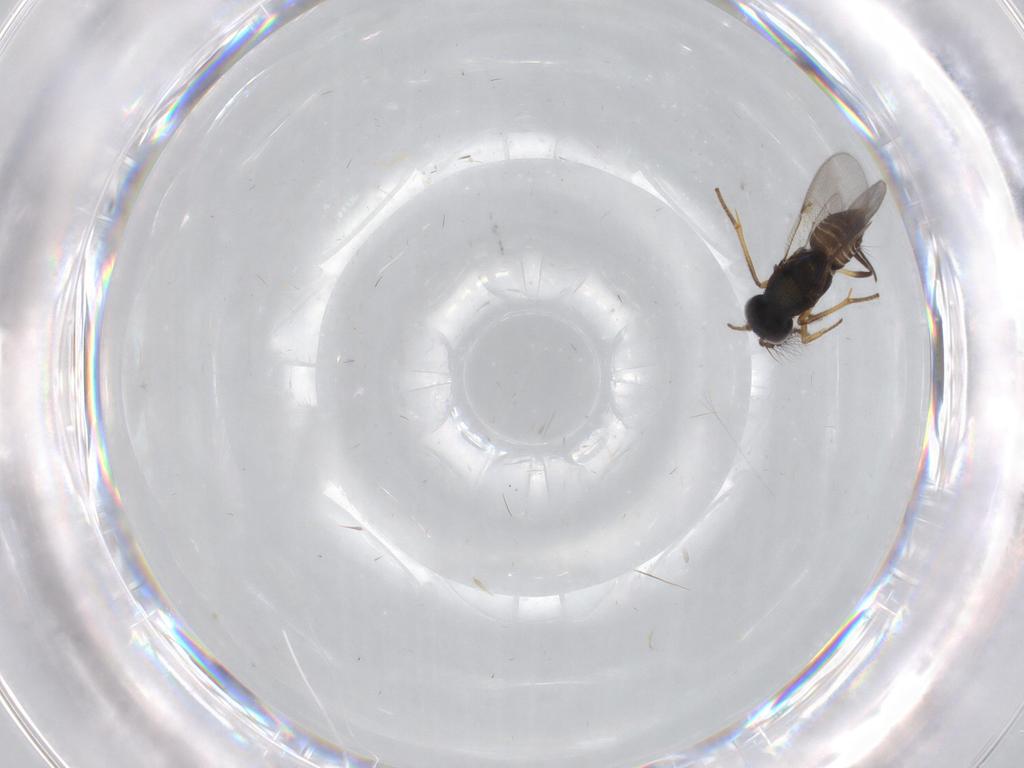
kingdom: Animalia
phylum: Arthropoda
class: Insecta
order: Hymenoptera
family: Encyrtidae
